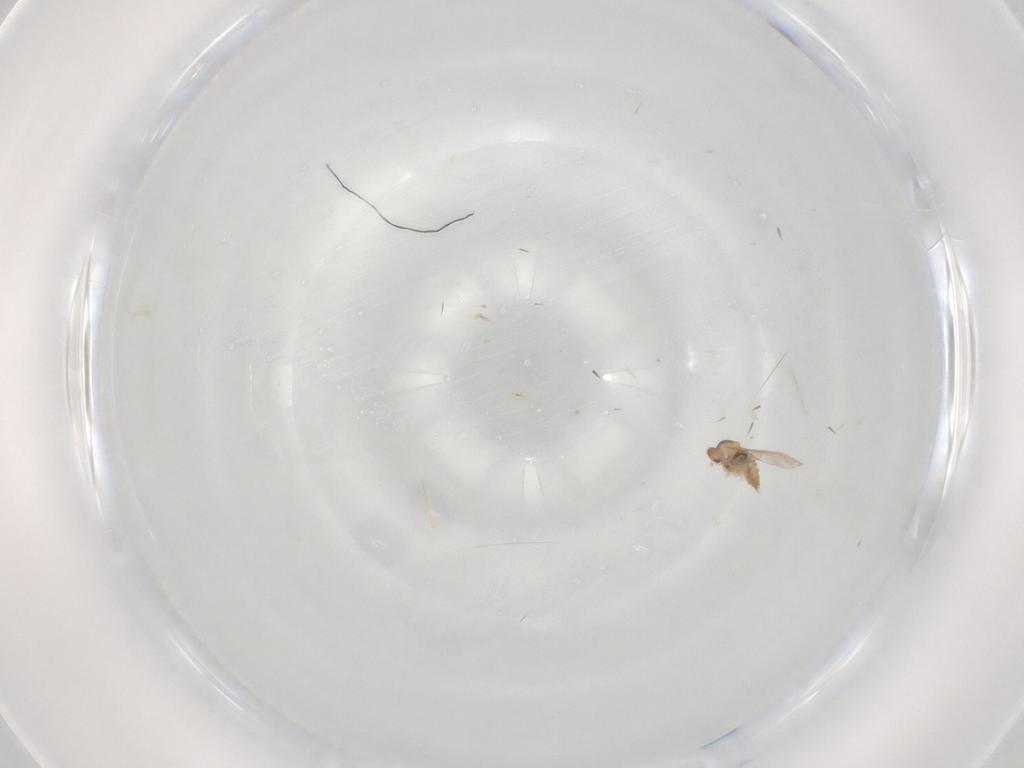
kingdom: Animalia
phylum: Arthropoda
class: Insecta
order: Diptera
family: Cecidomyiidae
